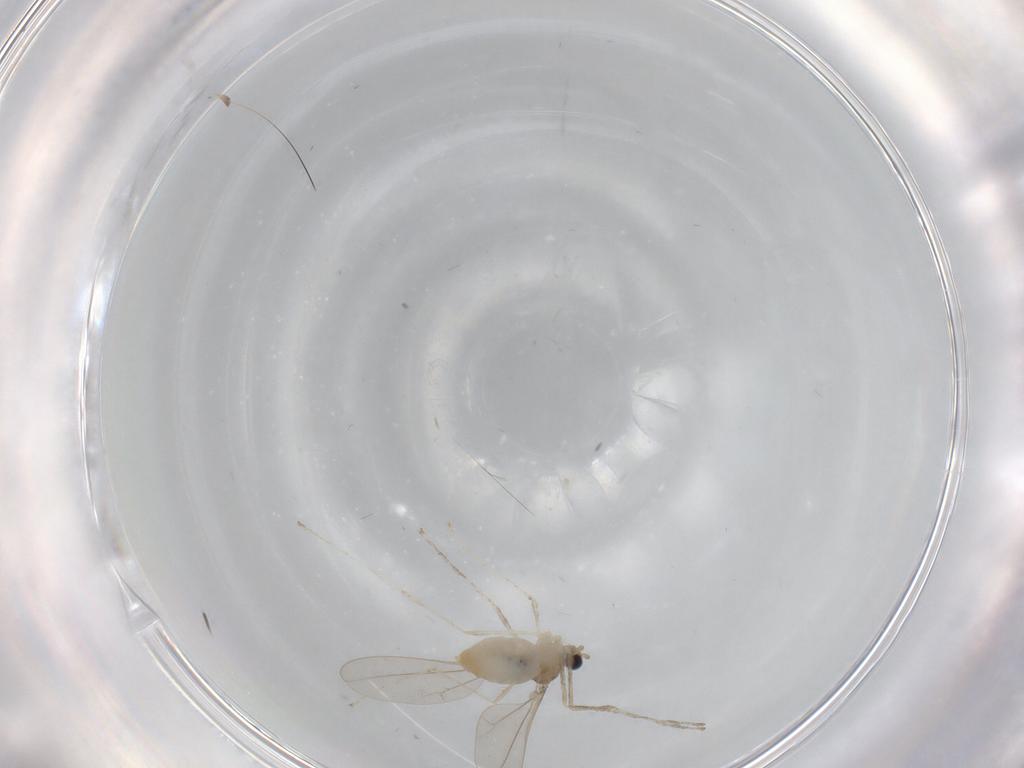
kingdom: Animalia
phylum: Arthropoda
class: Insecta
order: Diptera
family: Cecidomyiidae
